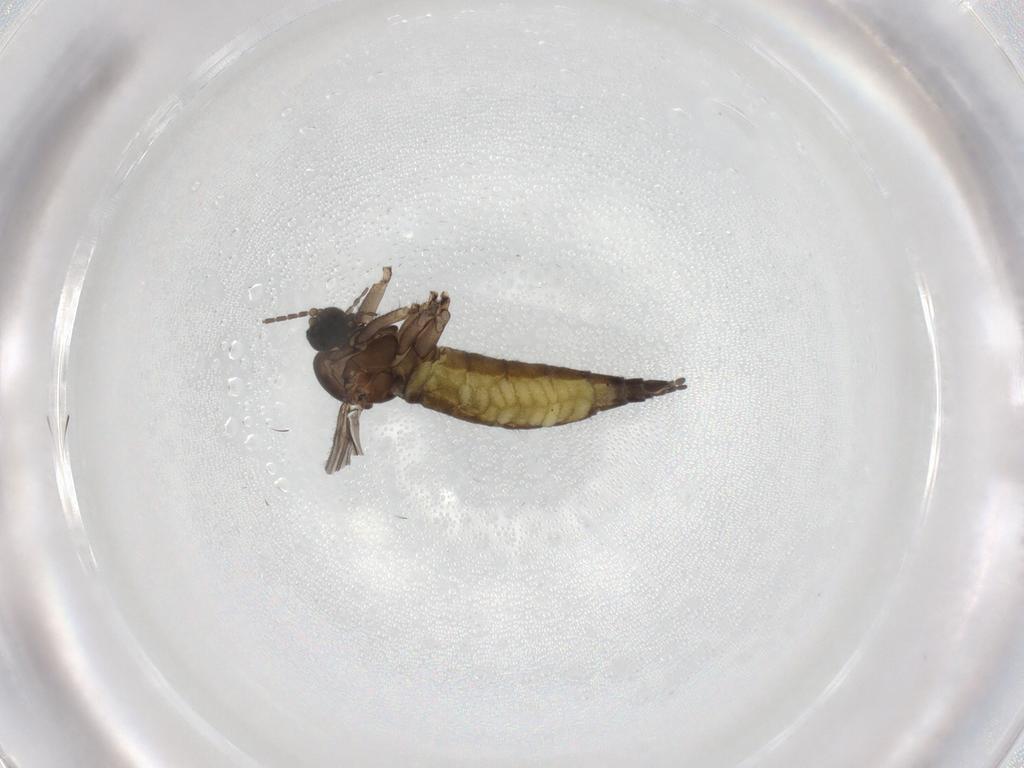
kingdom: Animalia
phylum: Arthropoda
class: Insecta
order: Diptera
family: Sciaridae
